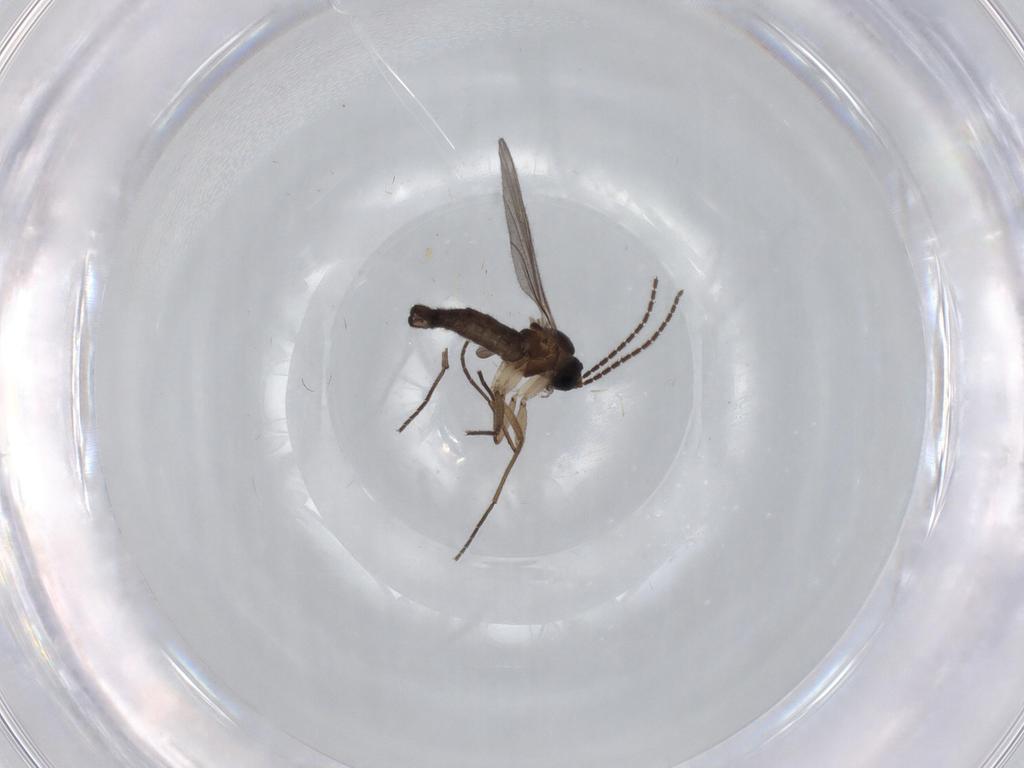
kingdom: Animalia
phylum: Arthropoda
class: Insecta
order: Diptera
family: Sciaridae
